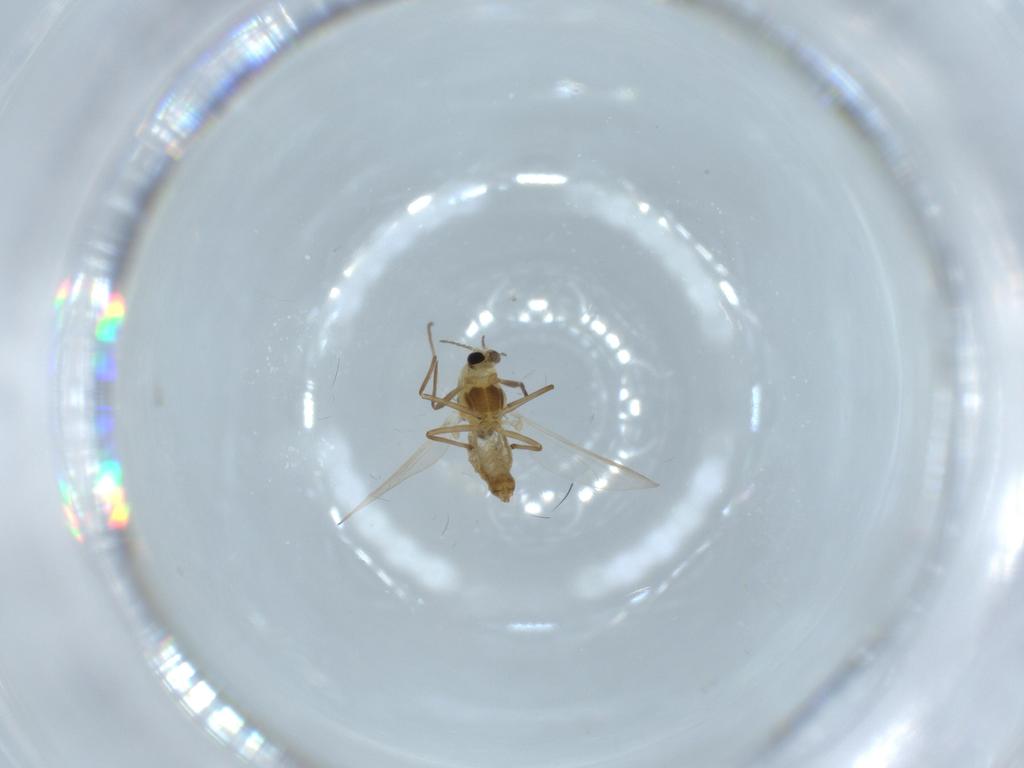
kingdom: Animalia
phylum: Arthropoda
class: Insecta
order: Diptera
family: Chironomidae
